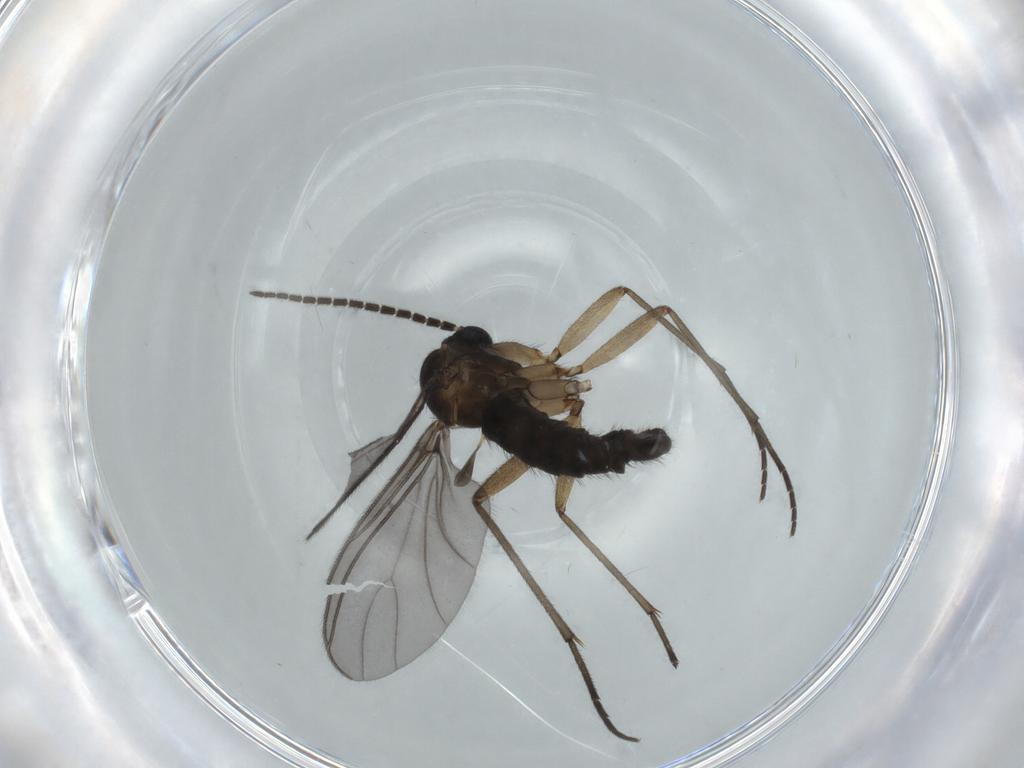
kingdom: Animalia
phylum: Arthropoda
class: Insecta
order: Diptera
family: Sciaridae
